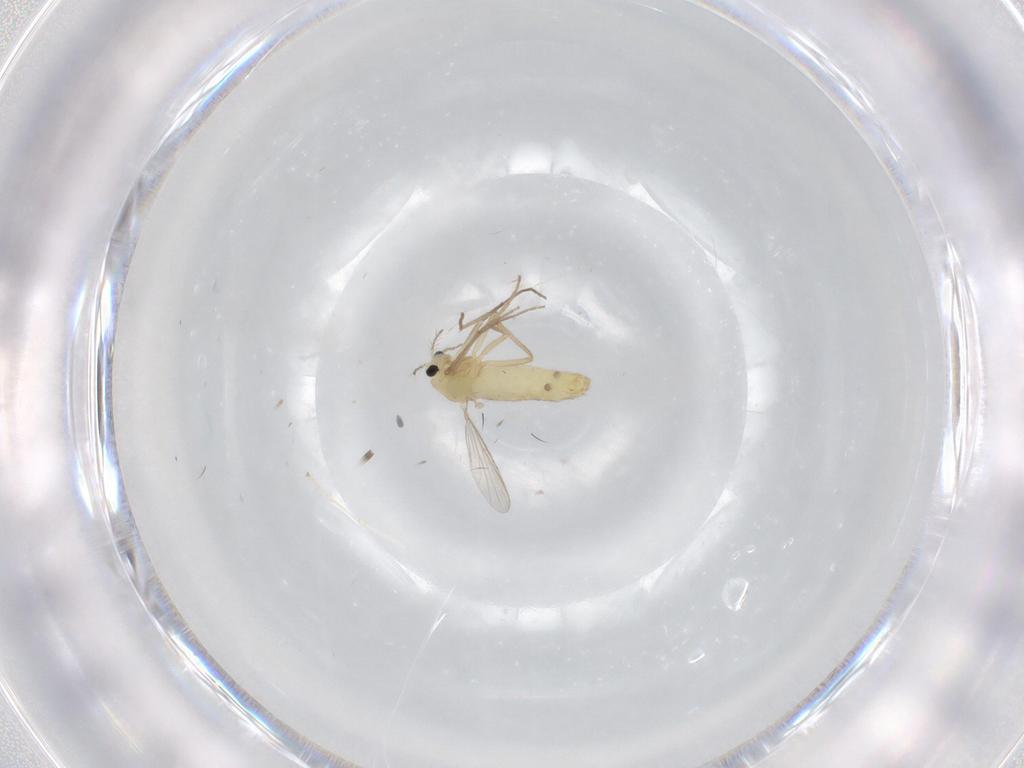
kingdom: Animalia
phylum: Arthropoda
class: Insecta
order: Diptera
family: Chironomidae
